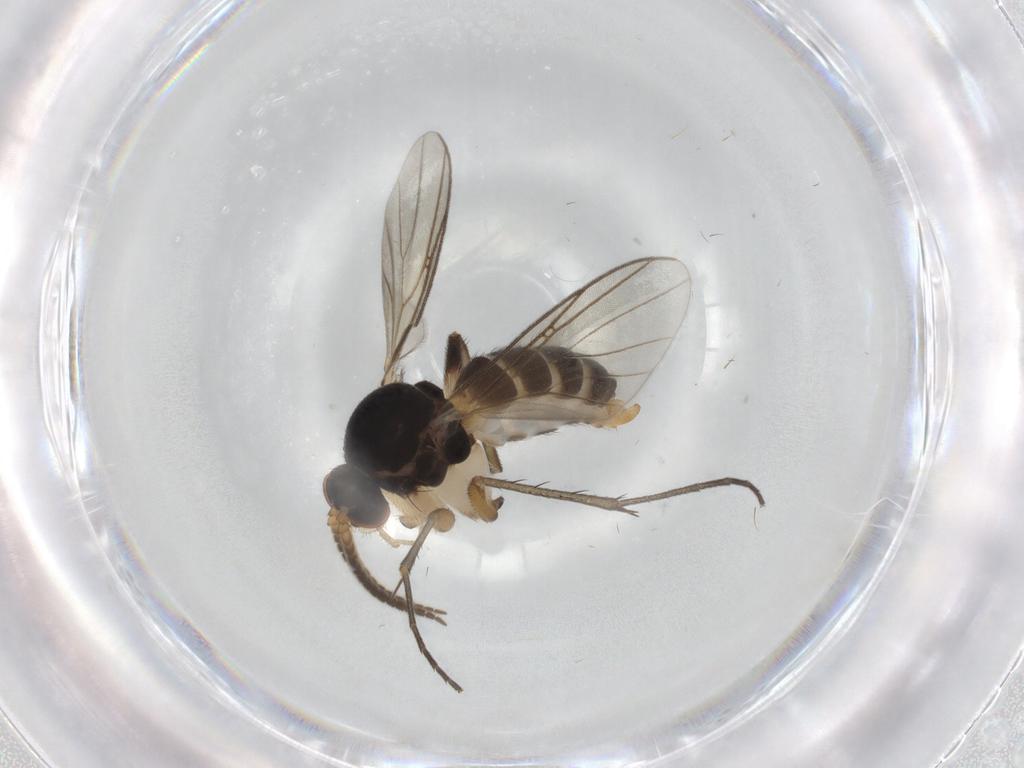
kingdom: Animalia
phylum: Arthropoda
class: Insecta
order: Diptera
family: Mycetophilidae
